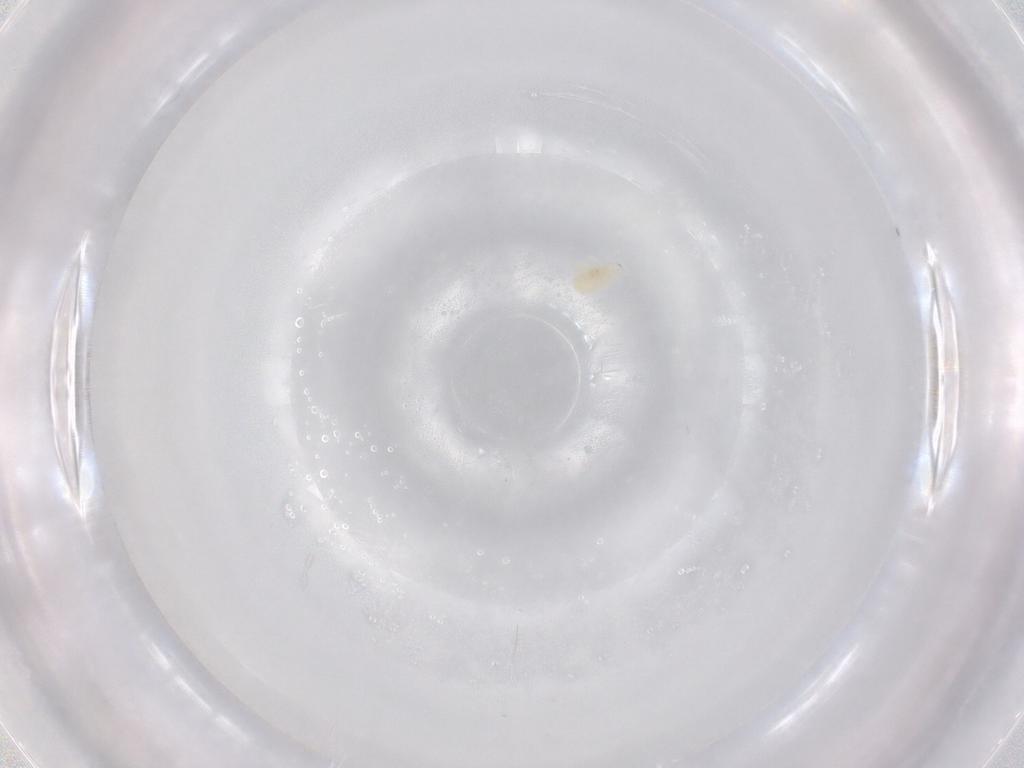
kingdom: Animalia
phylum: Arthropoda
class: Arachnida
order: Trombidiformes
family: Eupodidae
